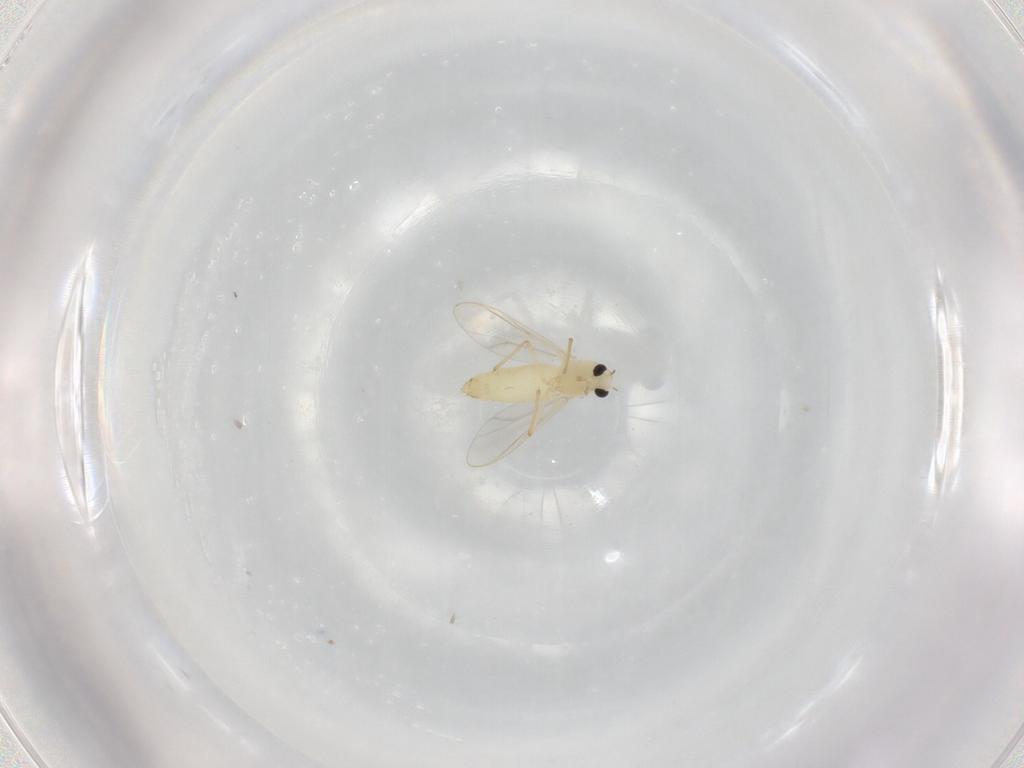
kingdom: Animalia
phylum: Arthropoda
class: Insecta
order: Diptera
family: Chironomidae
